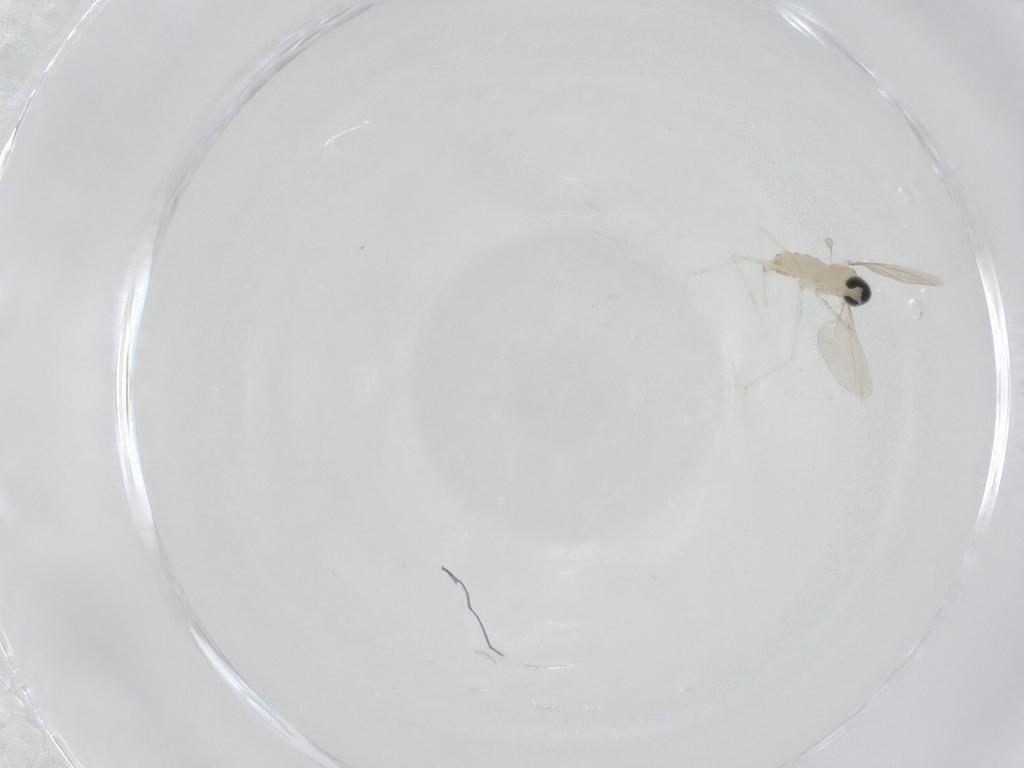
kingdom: Animalia
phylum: Arthropoda
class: Insecta
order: Diptera
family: Cecidomyiidae
